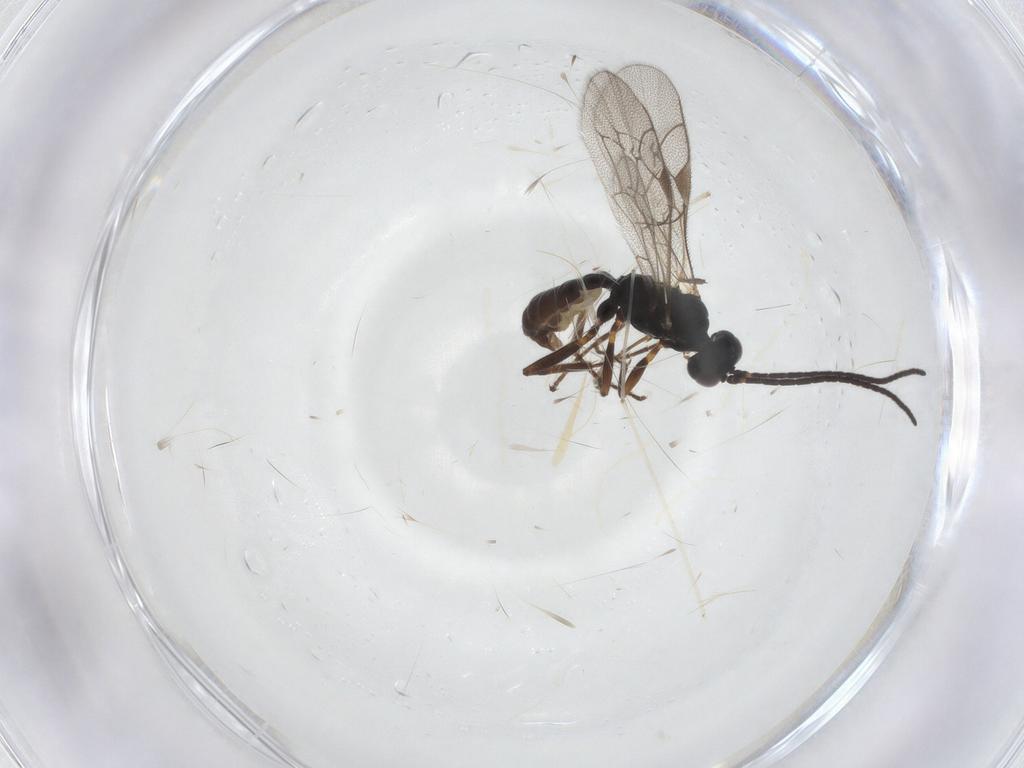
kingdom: Animalia
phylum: Arthropoda
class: Insecta
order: Hymenoptera
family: Ichneumonidae
